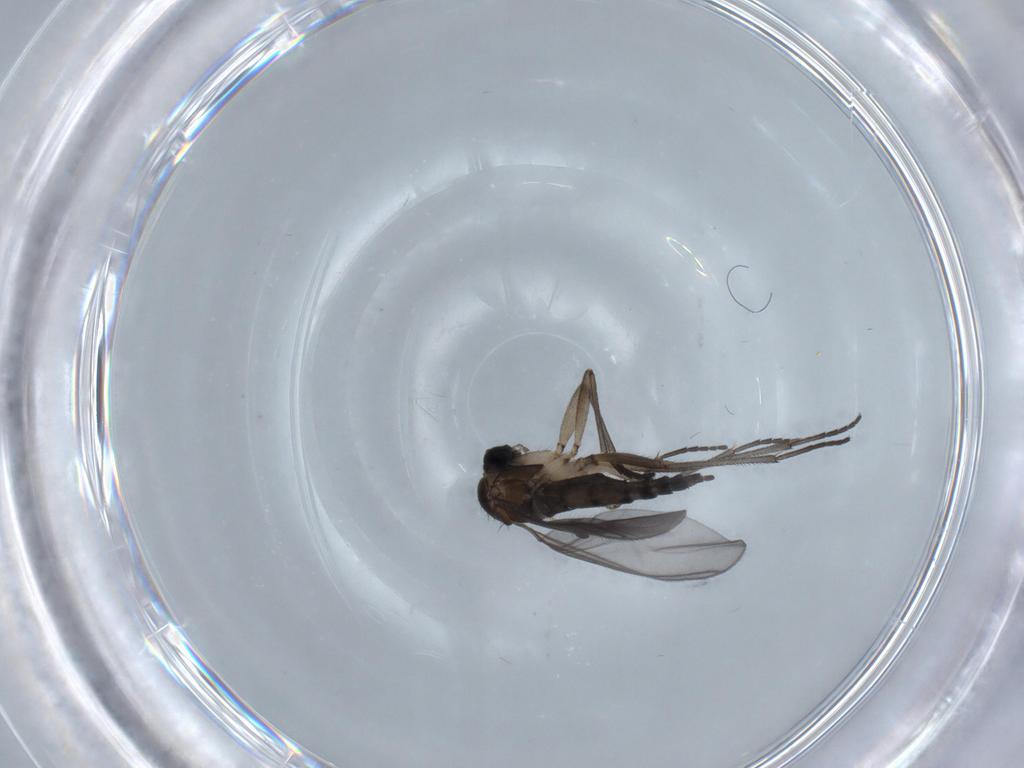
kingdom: Animalia
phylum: Arthropoda
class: Insecta
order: Diptera
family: Sciaridae
